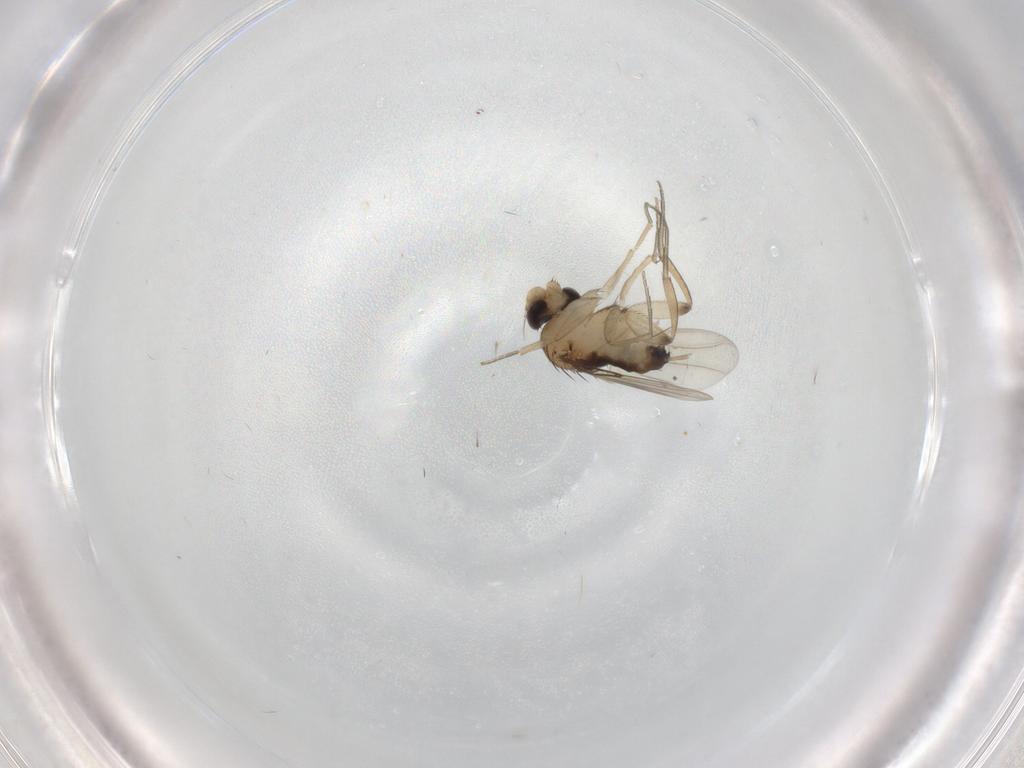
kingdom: Animalia
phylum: Arthropoda
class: Insecta
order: Diptera
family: Phoridae
